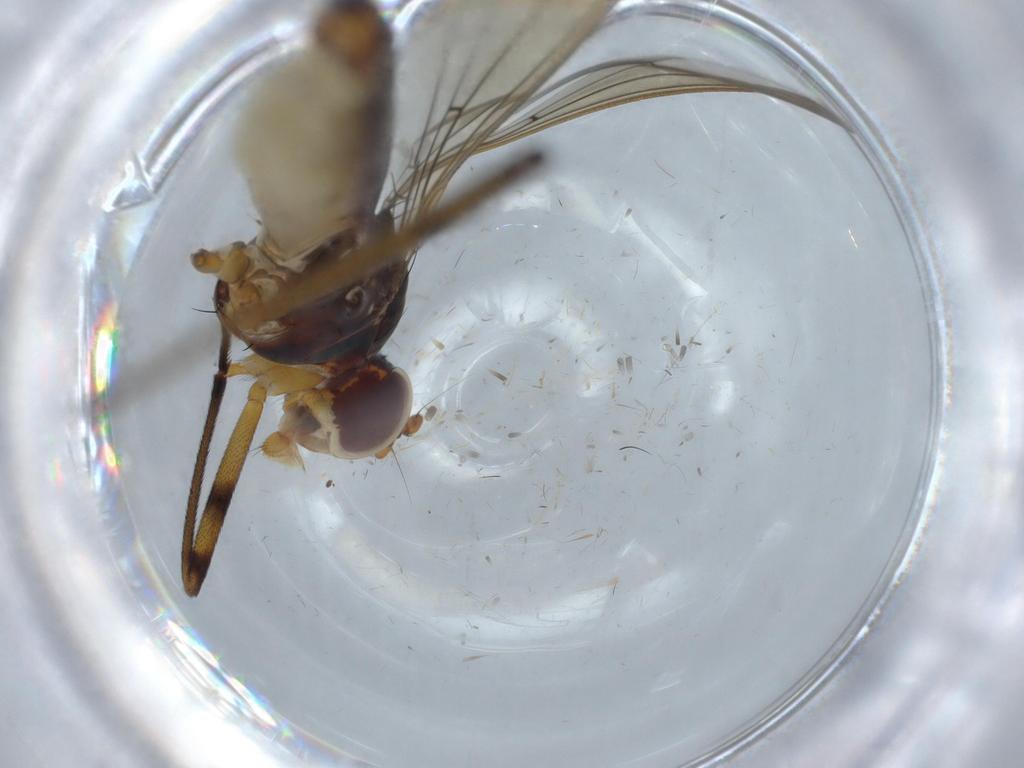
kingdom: Animalia
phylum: Arthropoda
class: Insecta
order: Diptera
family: Micropezidae
